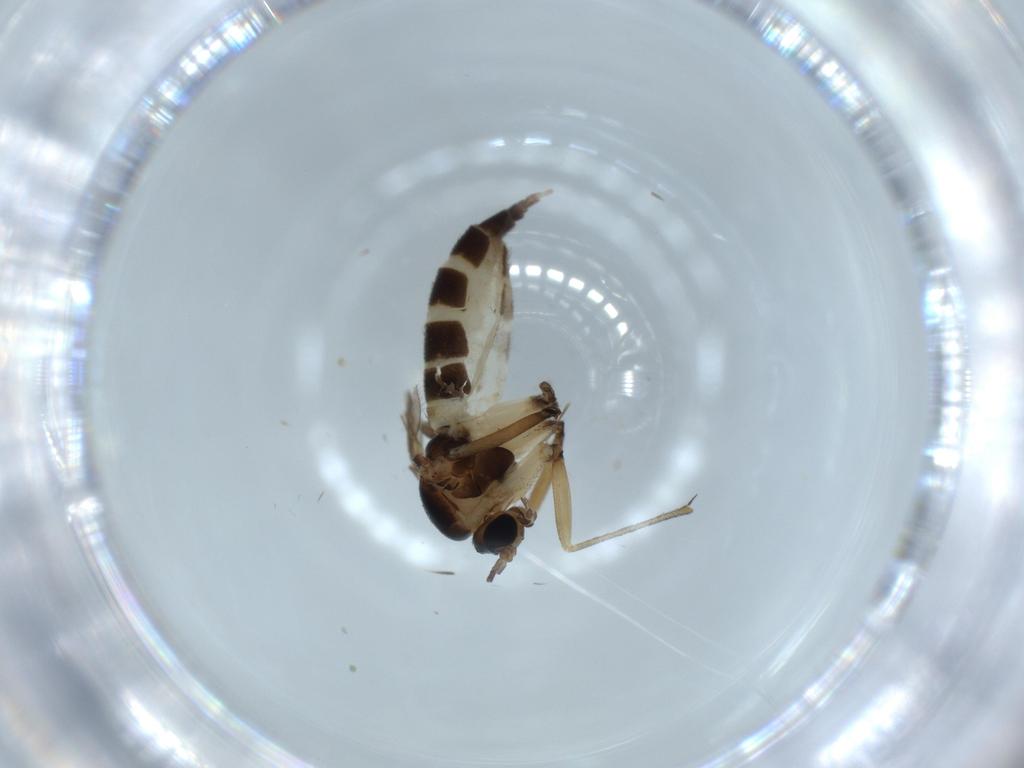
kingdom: Animalia
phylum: Arthropoda
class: Insecta
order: Diptera
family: Sciaridae
